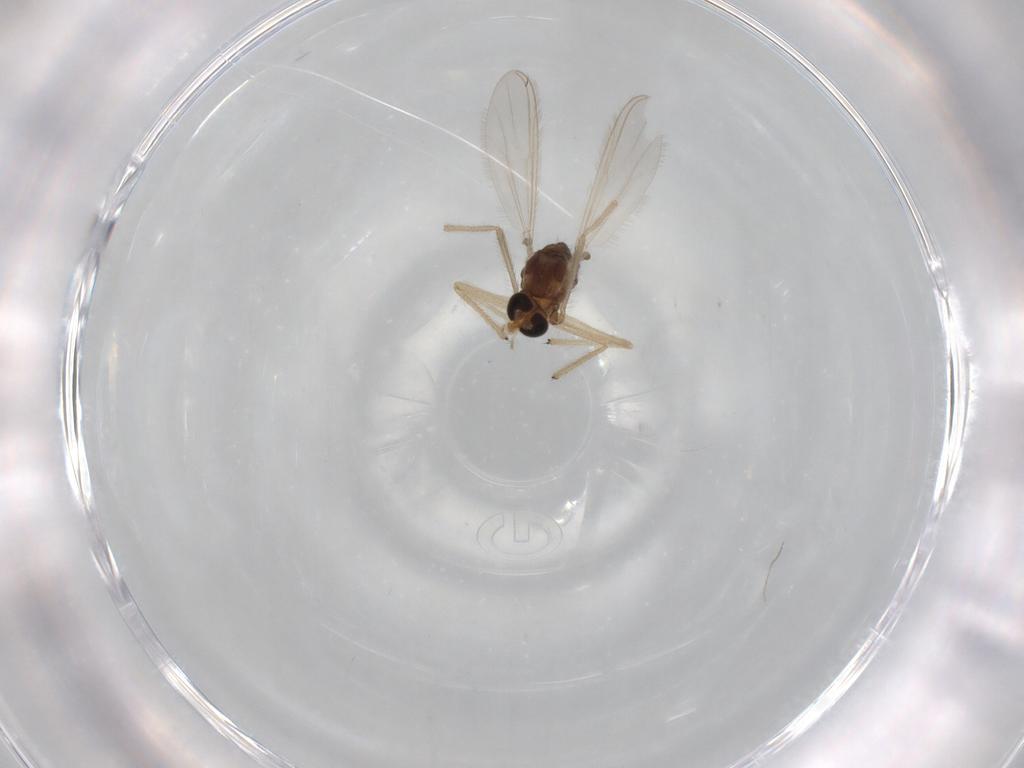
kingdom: Animalia
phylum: Arthropoda
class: Insecta
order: Diptera
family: Chironomidae
